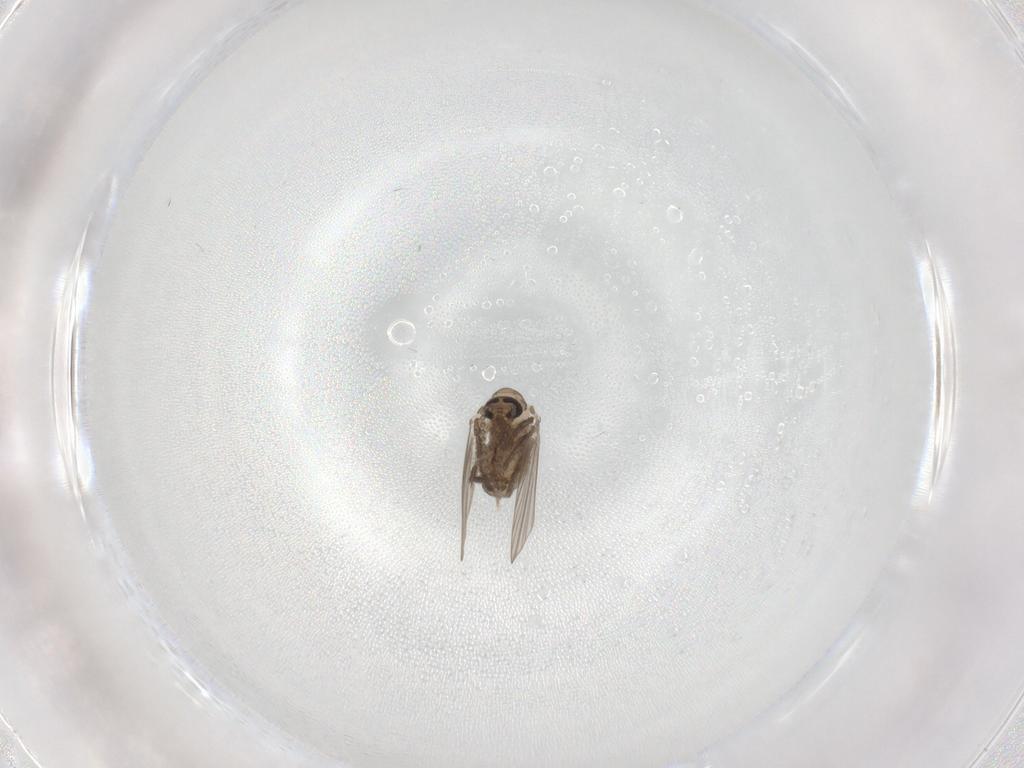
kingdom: Animalia
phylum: Arthropoda
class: Insecta
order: Diptera
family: Psychodidae
